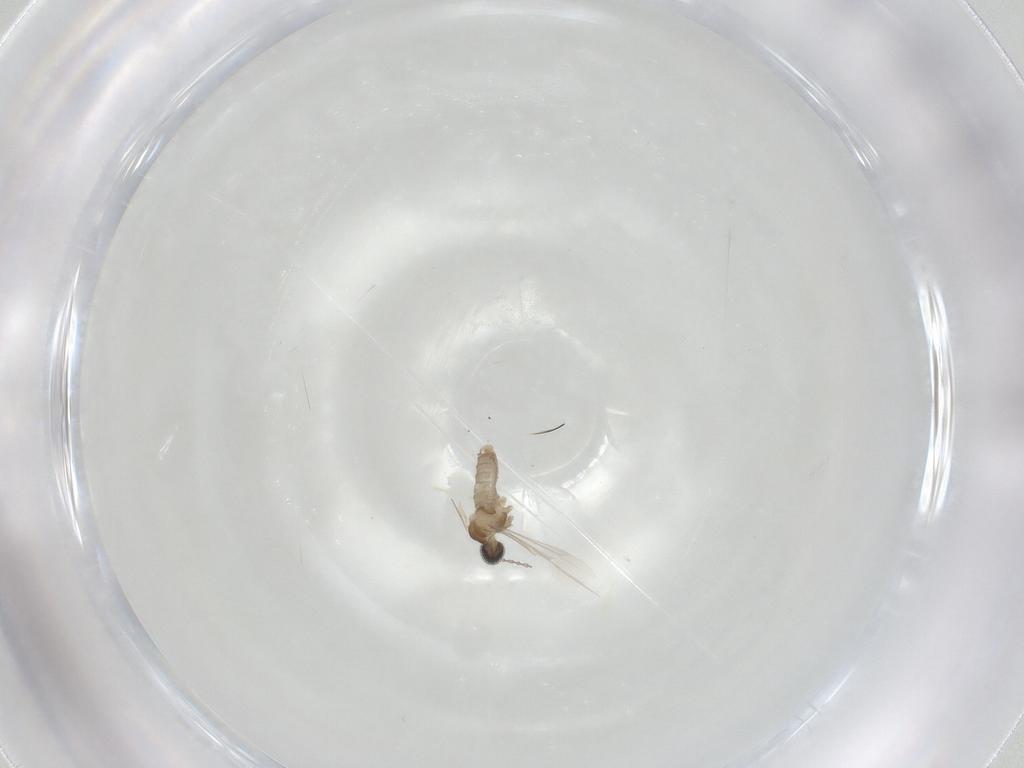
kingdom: Animalia
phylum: Arthropoda
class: Insecta
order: Diptera
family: Cecidomyiidae
